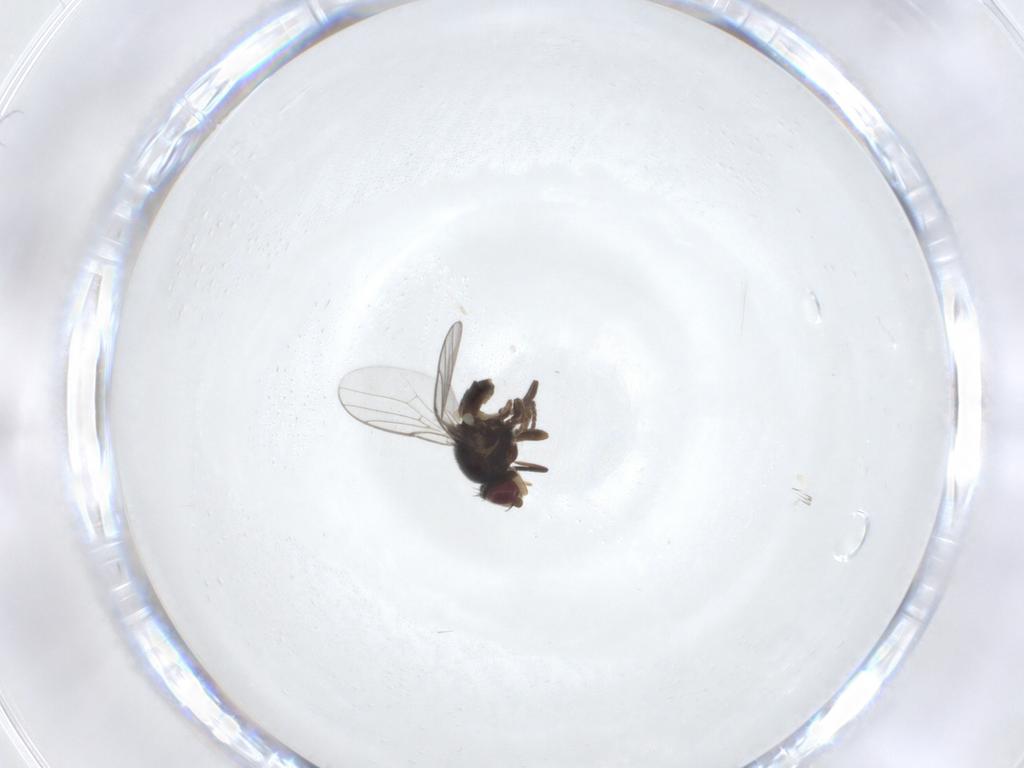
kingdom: Animalia
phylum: Arthropoda
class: Insecta
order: Diptera
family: Chloropidae
